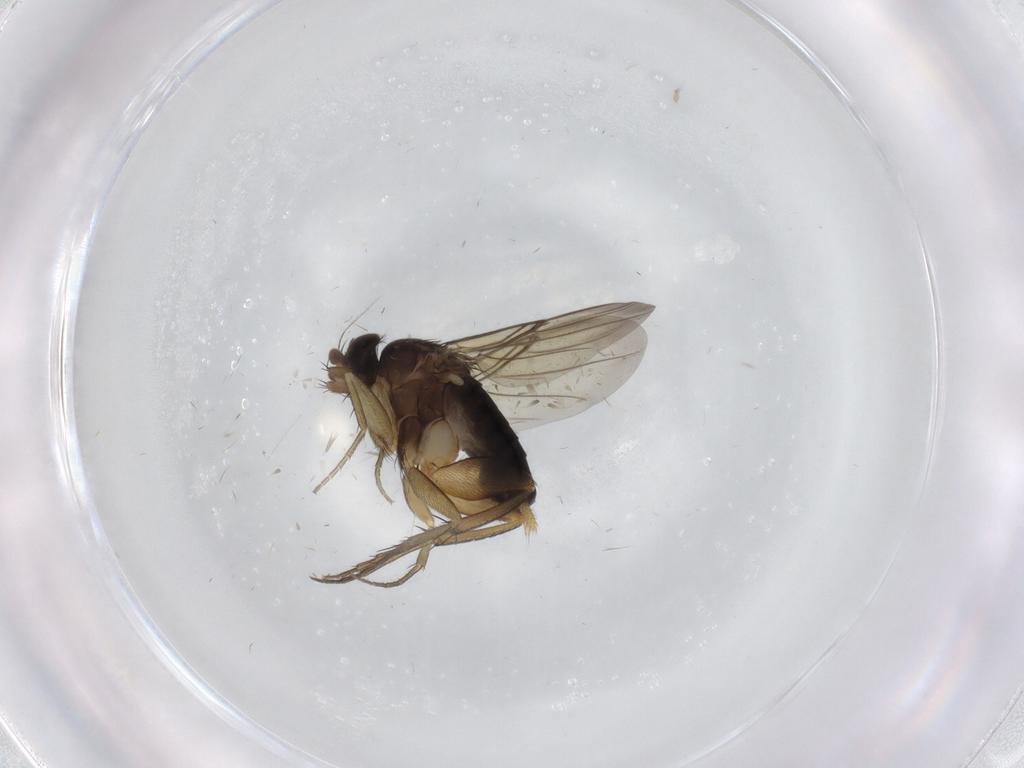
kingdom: Animalia
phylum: Arthropoda
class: Insecta
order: Diptera
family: Phoridae
